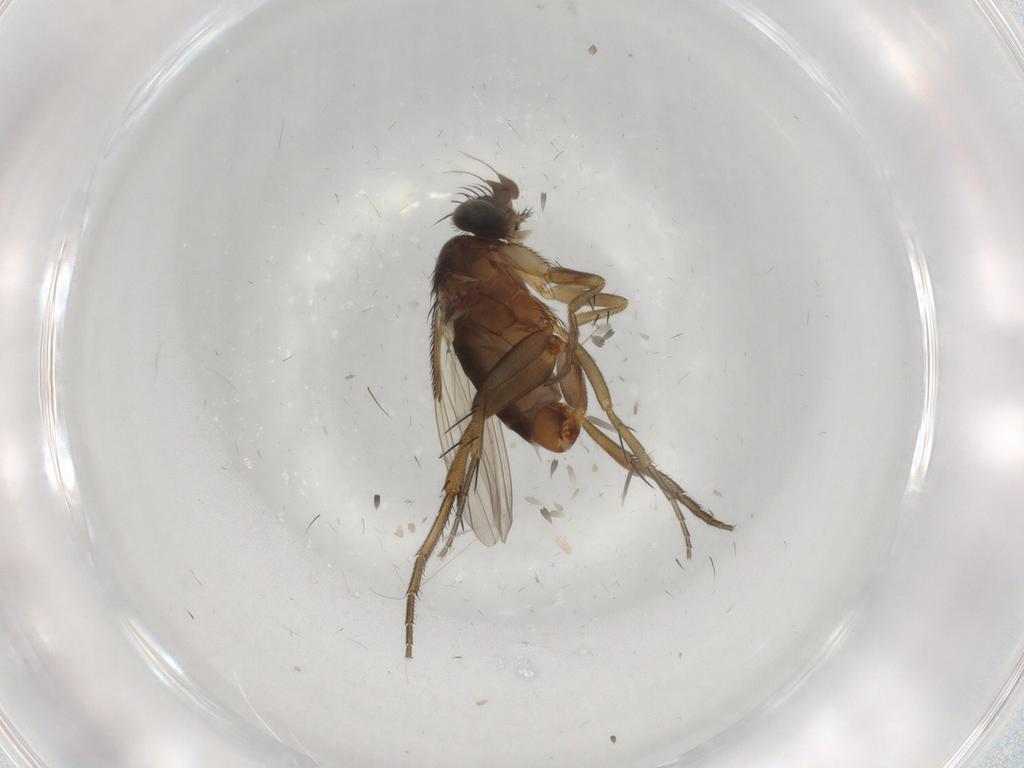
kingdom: Animalia
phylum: Arthropoda
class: Insecta
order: Diptera
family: Phoridae
